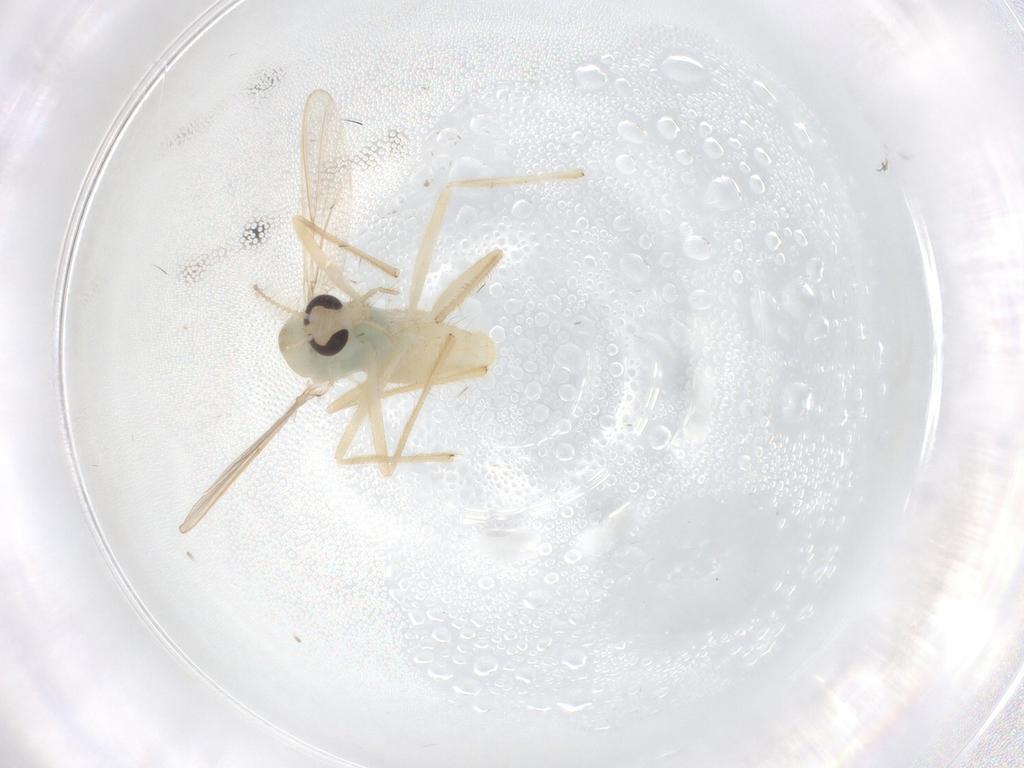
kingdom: Animalia
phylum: Arthropoda
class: Insecta
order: Diptera
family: Chironomidae
